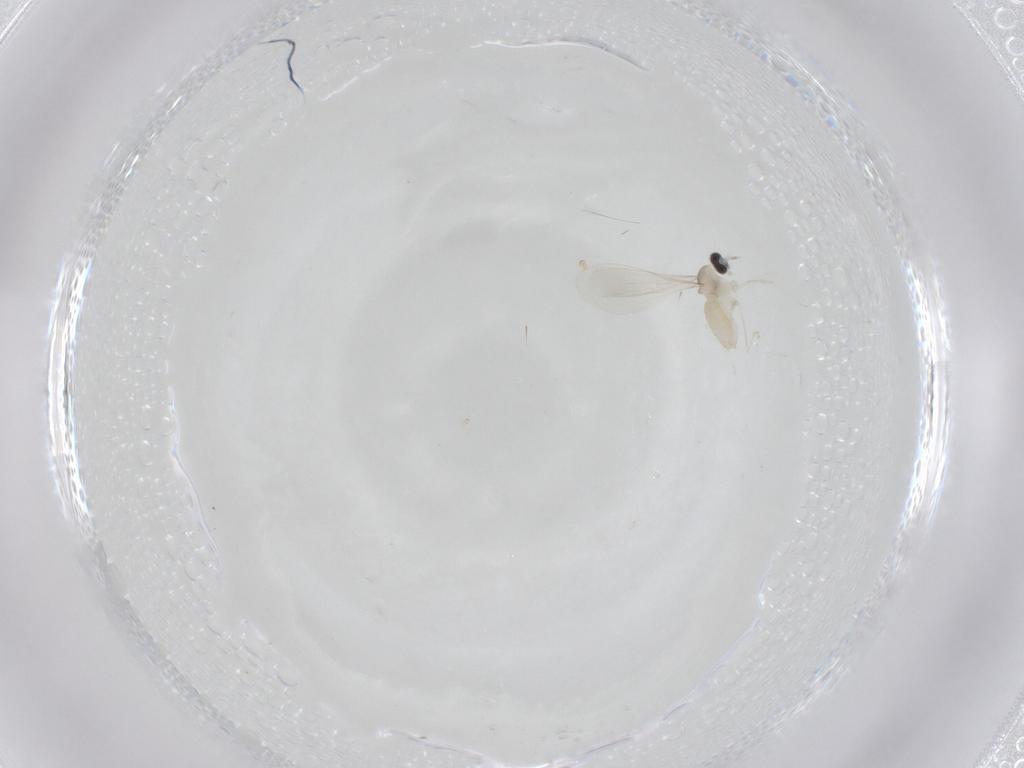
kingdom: Animalia
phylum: Arthropoda
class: Insecta
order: Diptera
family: Cecidomyiidae
